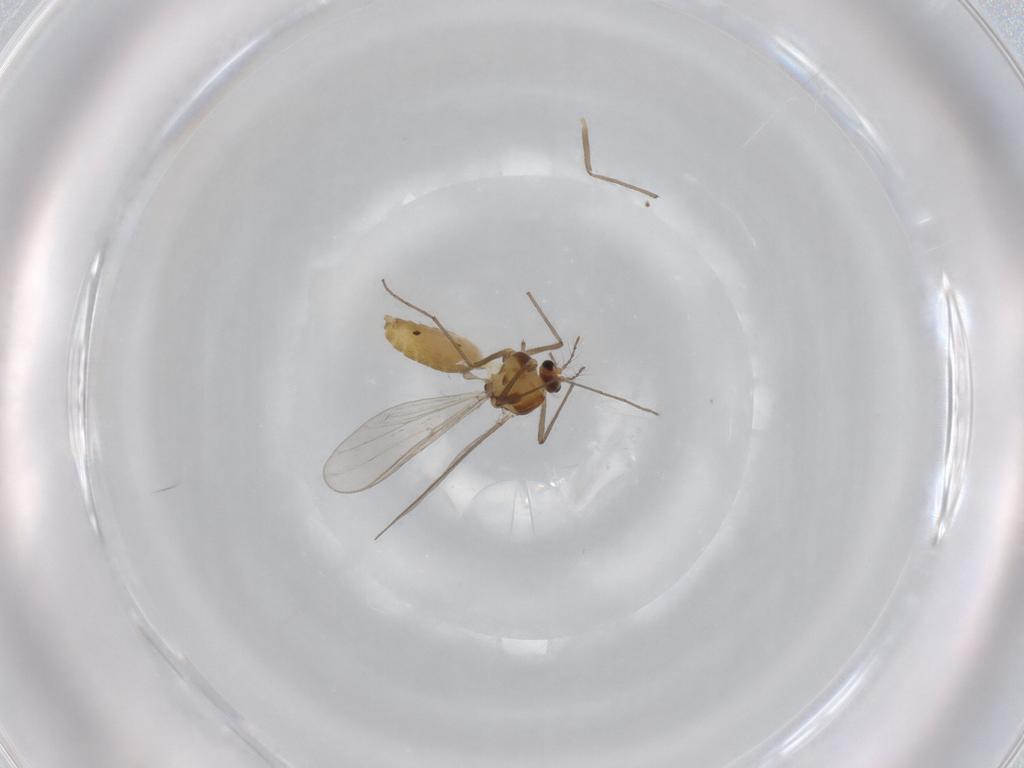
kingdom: Animalia
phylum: Arthropoda
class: Insecta
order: Diptera
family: Chironomidae
